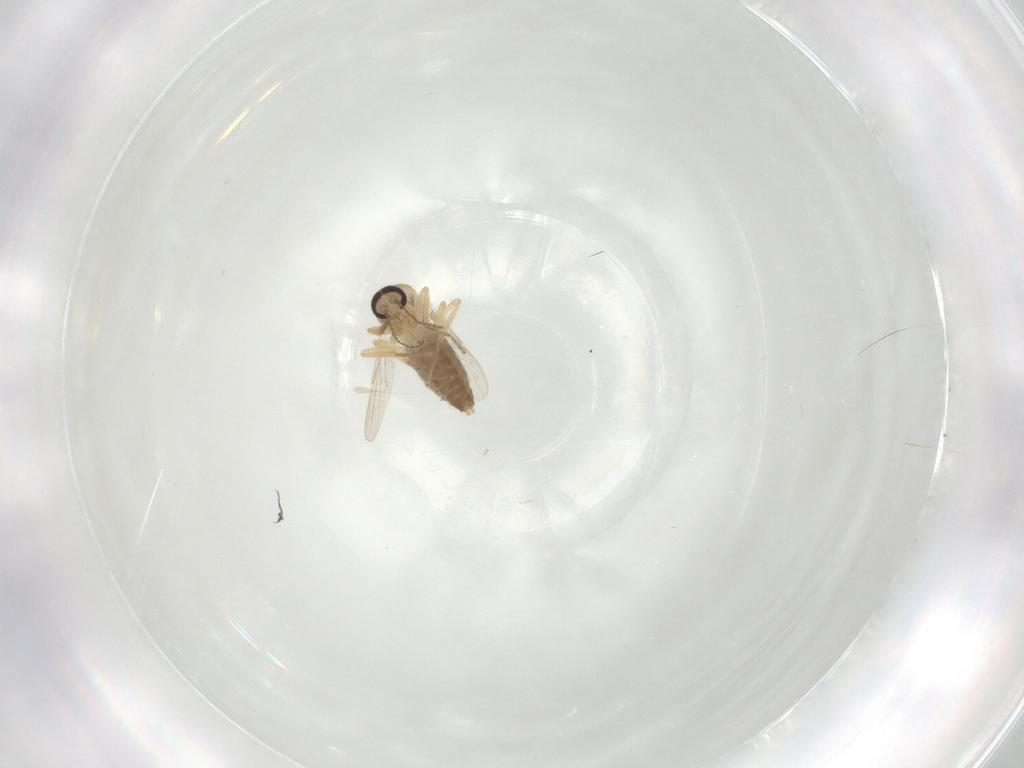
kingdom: Animalia
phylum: Arthropoda
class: Insecta
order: Diptera
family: Ceratopogonidae
